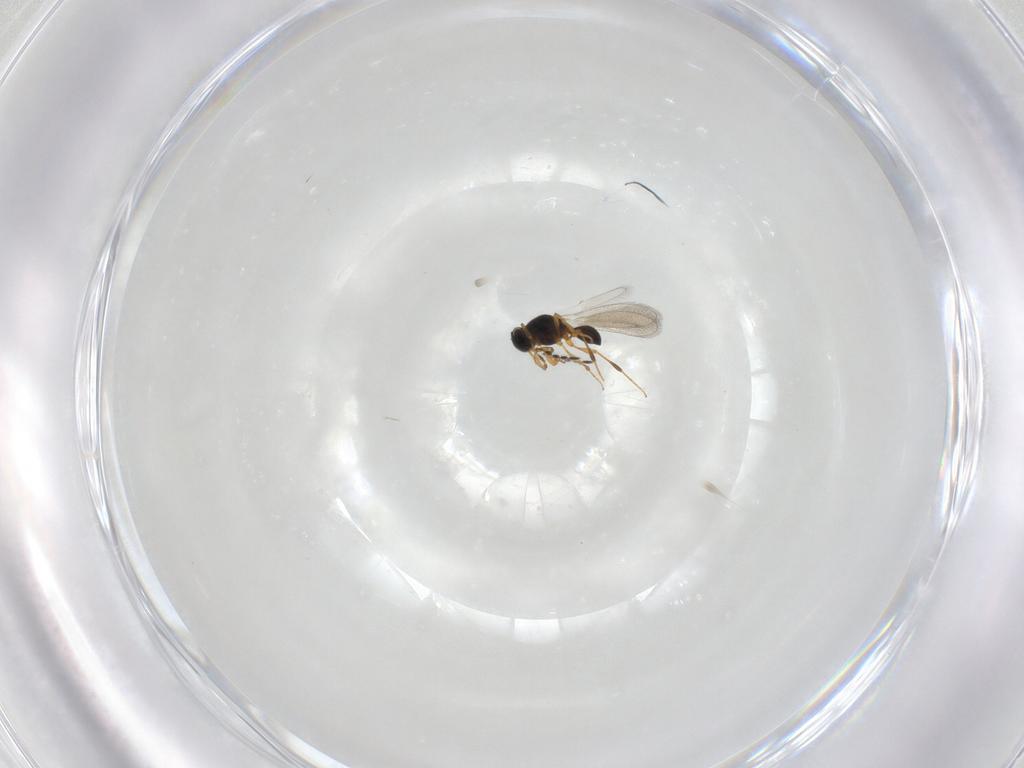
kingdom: Animalia
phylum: Arthropoda
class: Insecta
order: Hymenoptera
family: Platygastridae
